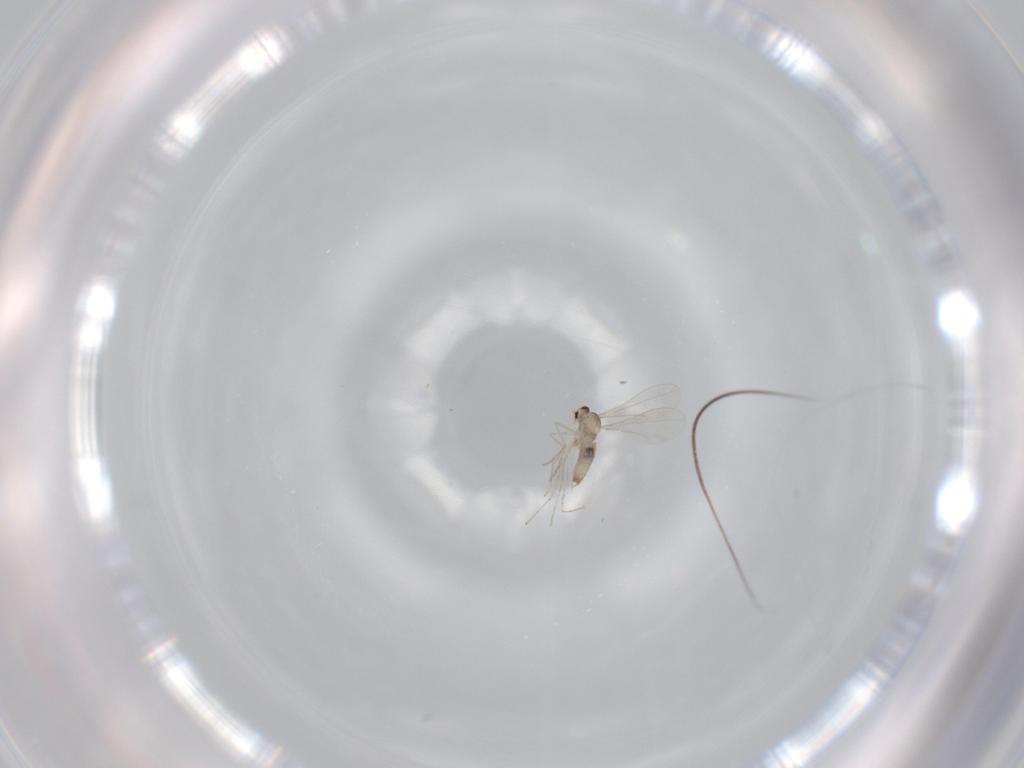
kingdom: Animalia
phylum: Arthropoda
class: Insecta
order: Diptera
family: Cecidomyiidae
